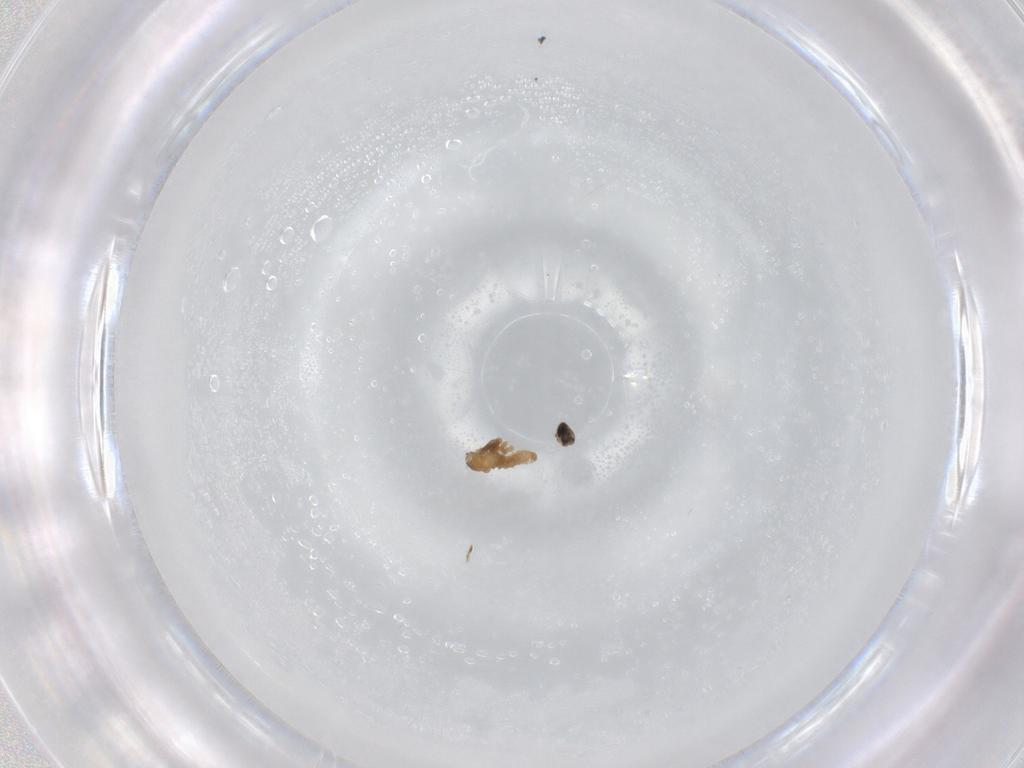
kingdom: Animalia
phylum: Arthropoda
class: Insecta
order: Diptera
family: Cecidomyiidae
